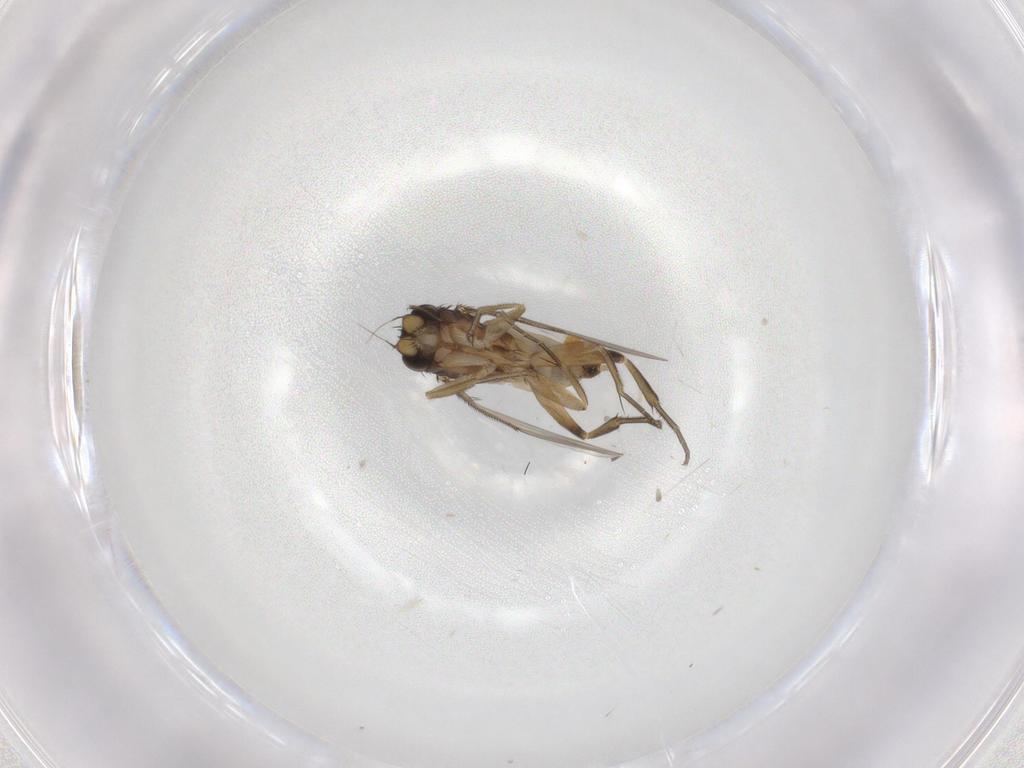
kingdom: Animalia
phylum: Arthropoda
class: Insecta
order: Diptera
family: Phoridae
